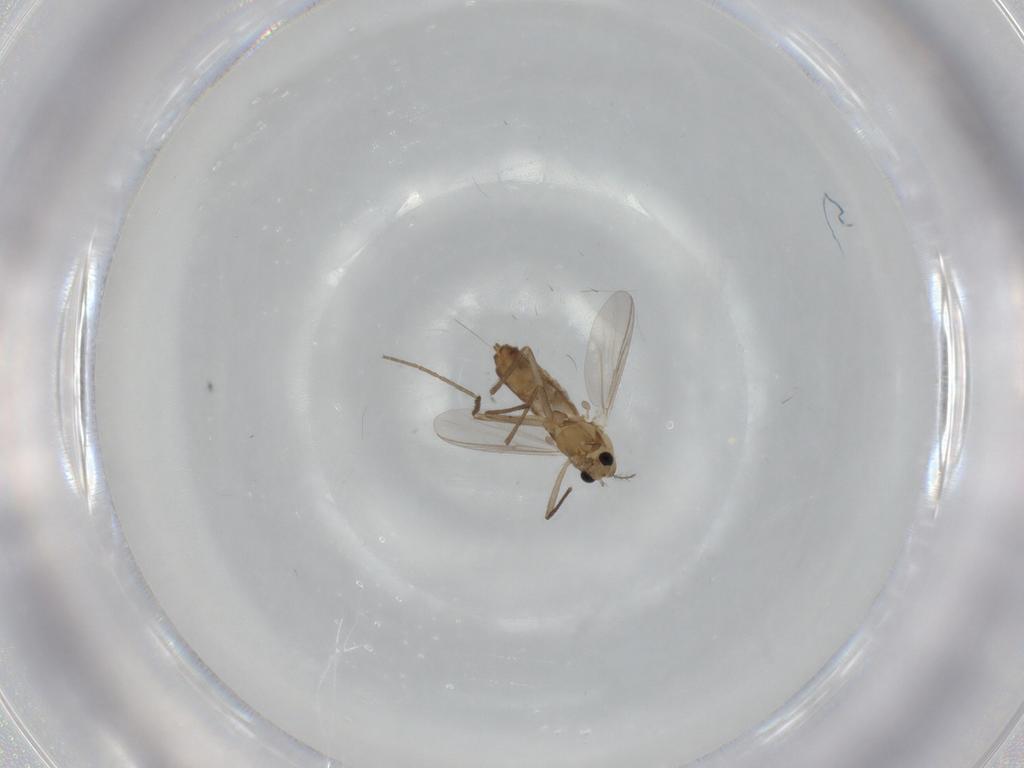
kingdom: Animalia
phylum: Arthropoda
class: Insecta
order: Diptera
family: Chironomidae
